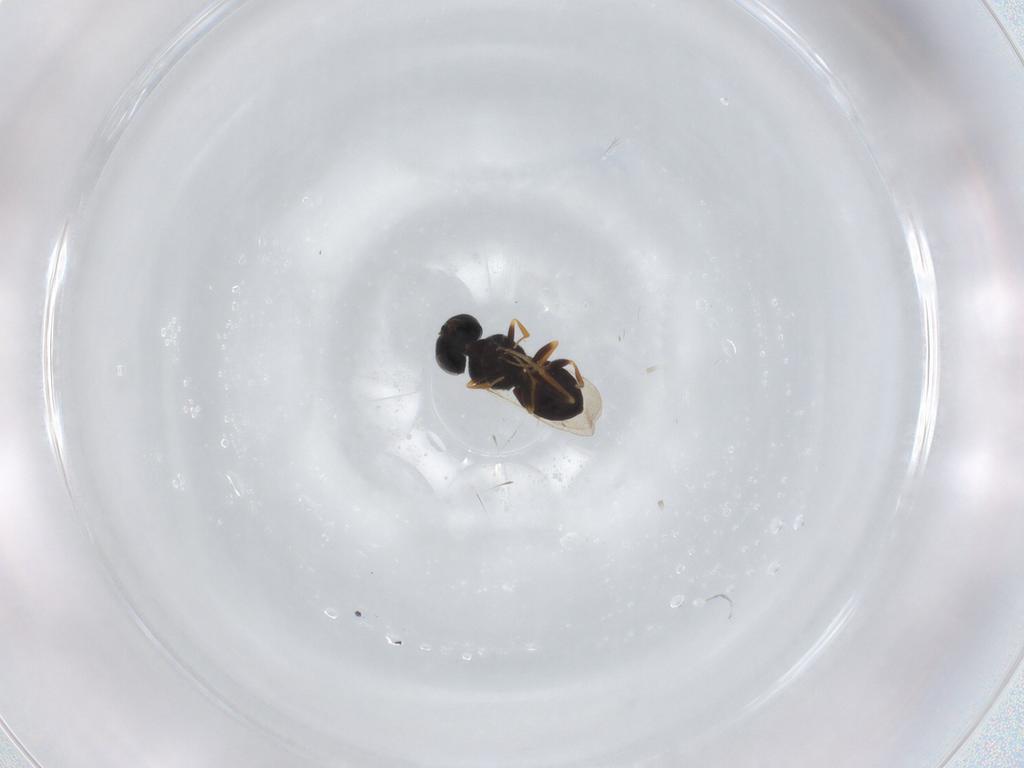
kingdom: Animalia
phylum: Arthropoda
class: Insecta
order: Coleoptera
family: Curculionidae
